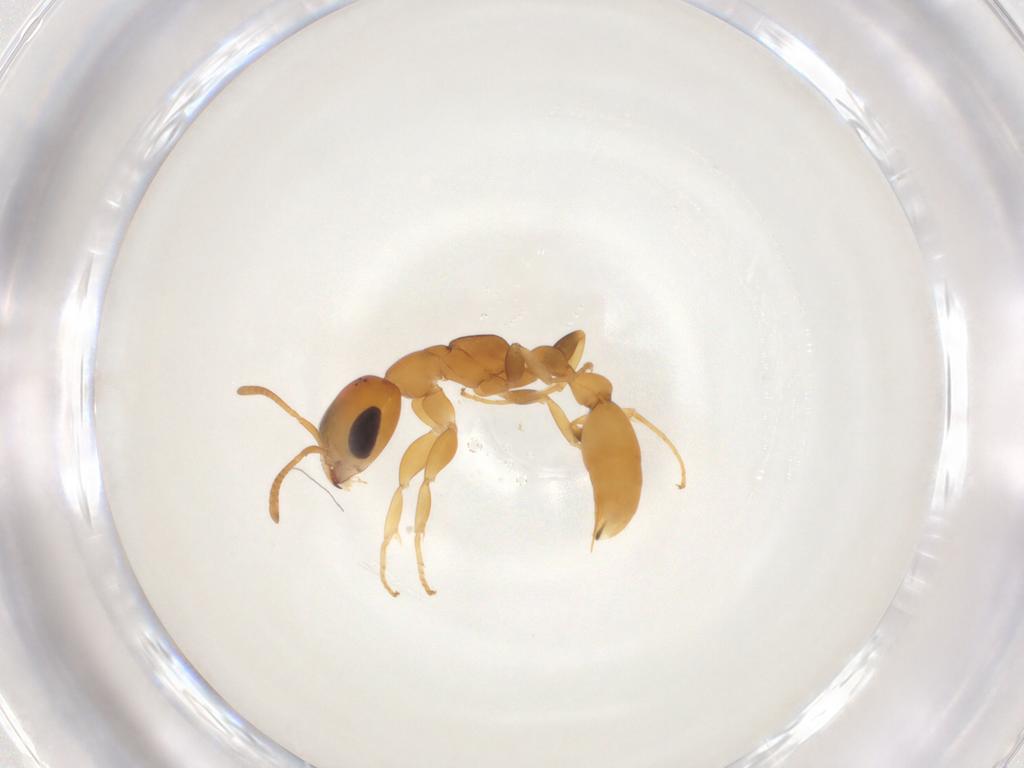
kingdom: Animalia
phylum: Arthropoda
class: Insecta
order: Hymenoptera
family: Formicidae
